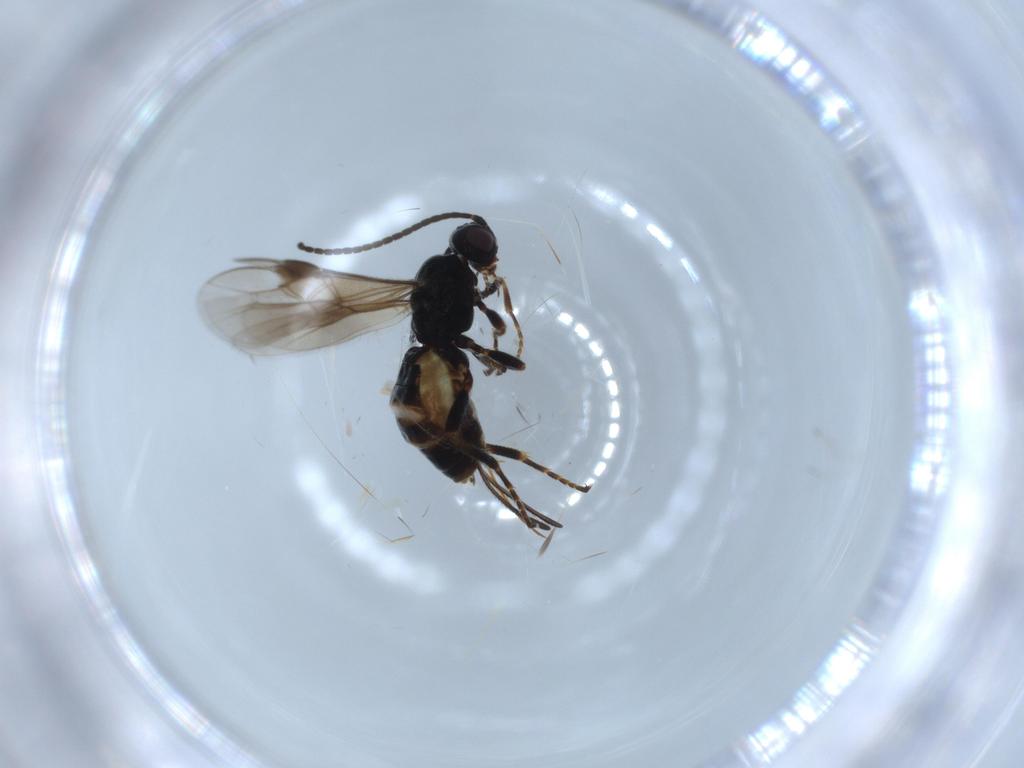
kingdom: Animalia
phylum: Arthropoda
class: Insecta
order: Hymenoptera
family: Braconidae
